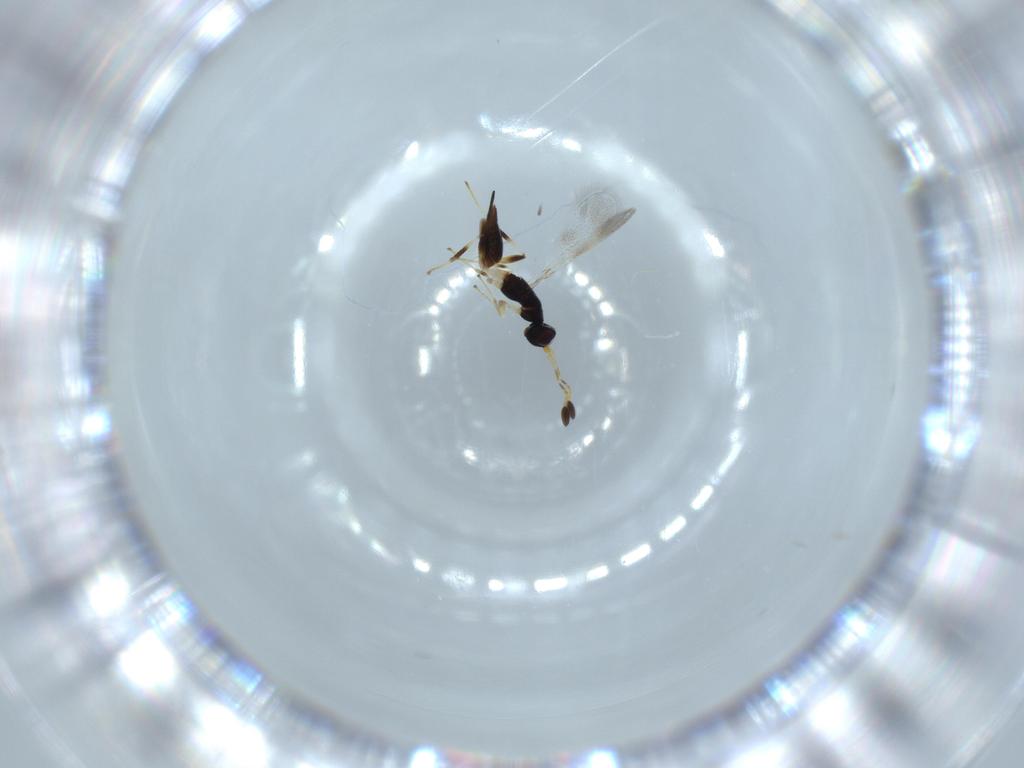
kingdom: Animalia
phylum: Arthropoda
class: Insecta
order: Hymenoptera
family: Mymaridae
